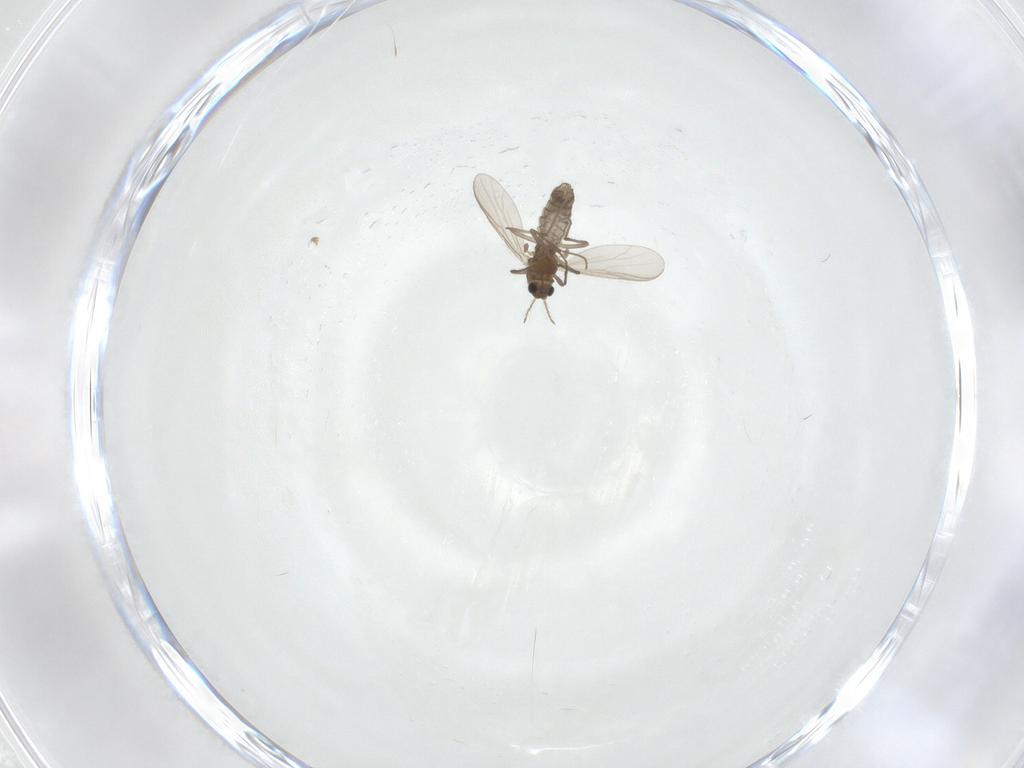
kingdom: Animalia
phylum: Arthropoda
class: Insecta
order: Diptera
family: Chironomidae
